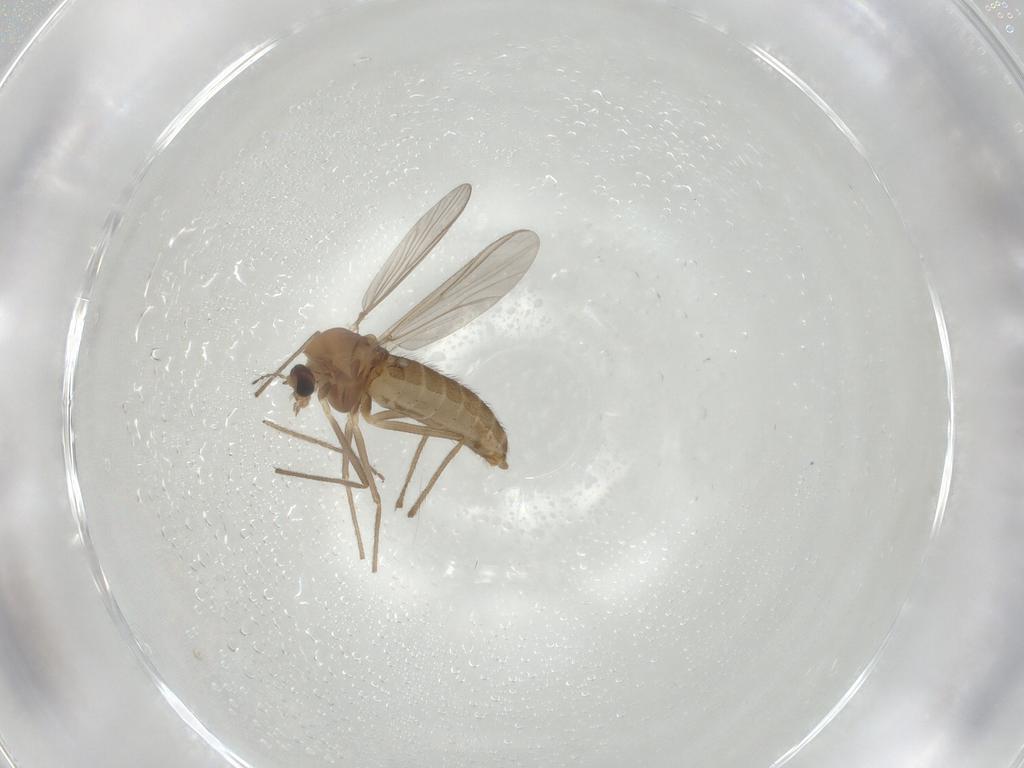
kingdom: Animalia
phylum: Arthropoda
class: Insecta
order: Diptera
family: Chironomidae
